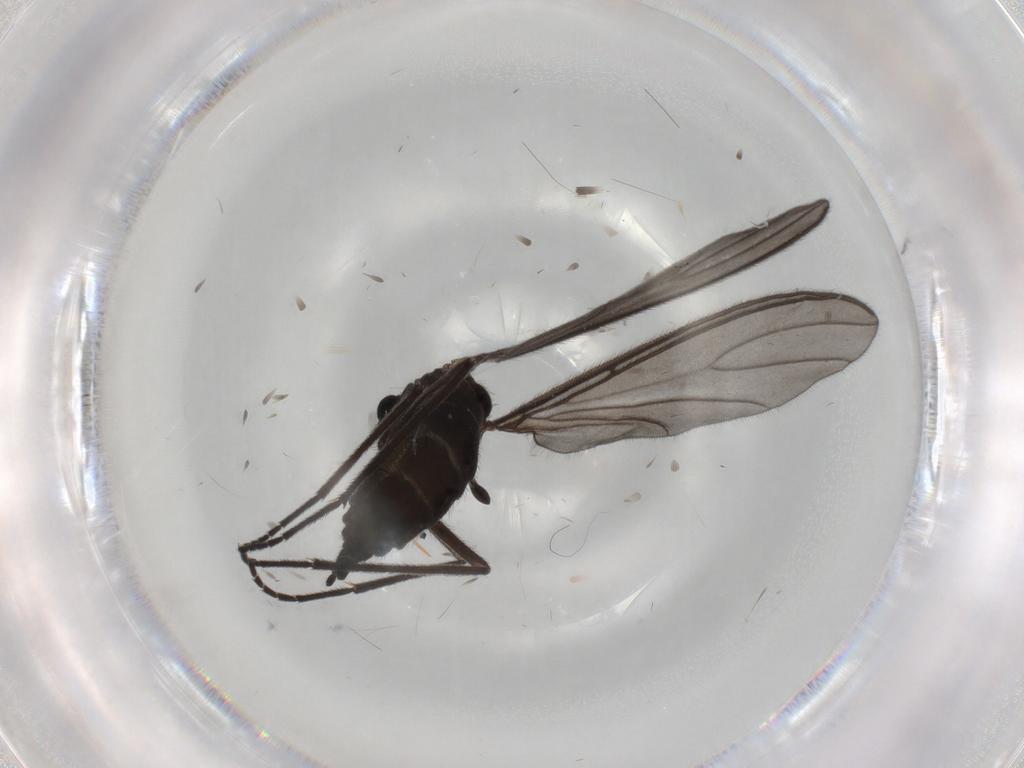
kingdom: Animalia
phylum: Arthropoda
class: Insecta
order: Diptera
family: Sciaridae
